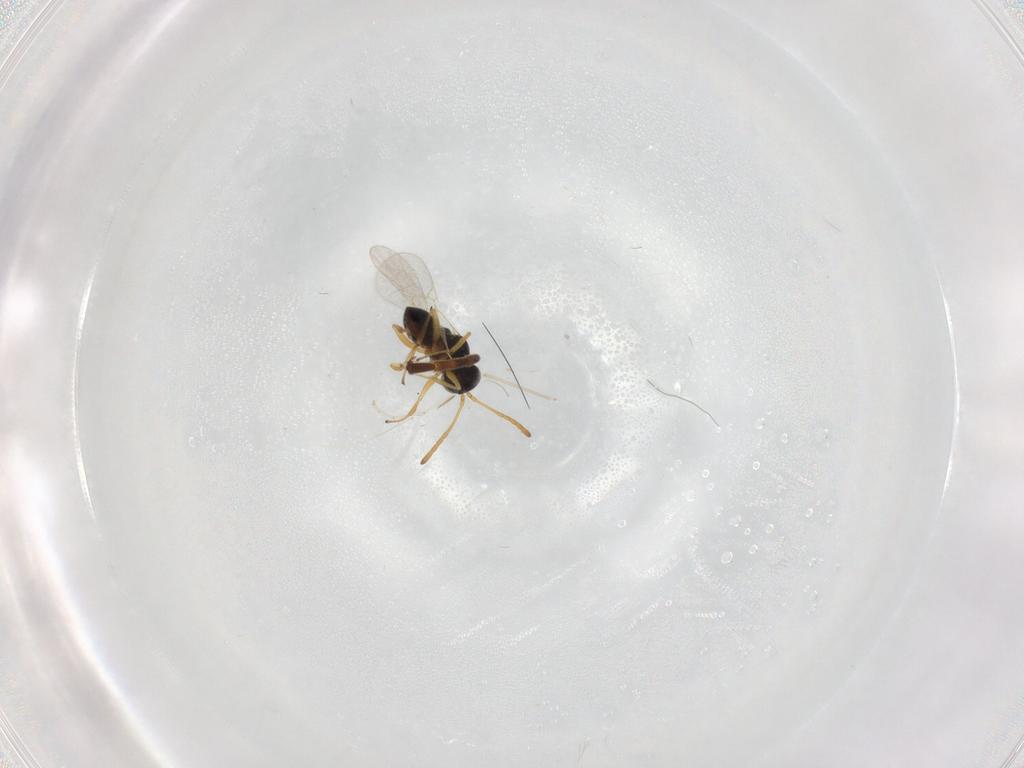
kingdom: Animalia
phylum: Arthropoda
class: Insecta
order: Hymenoptera
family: Figitidae
